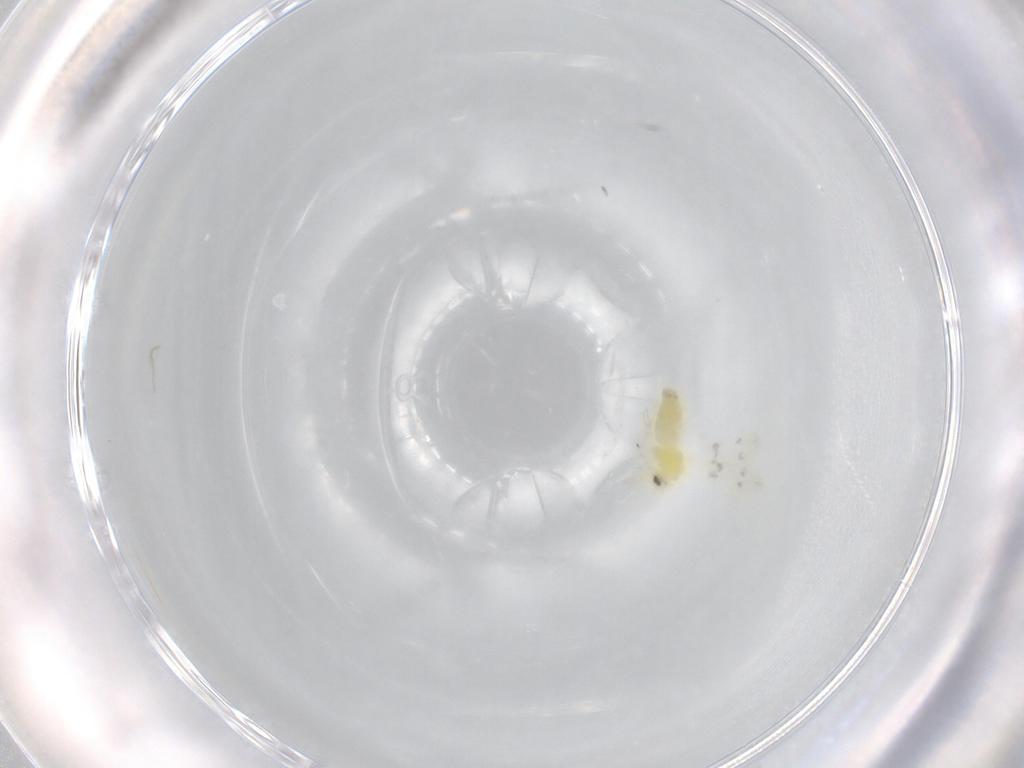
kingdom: Animalia
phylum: Arthropoda
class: Insecta
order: Hemiptera
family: Aleyrodidae
